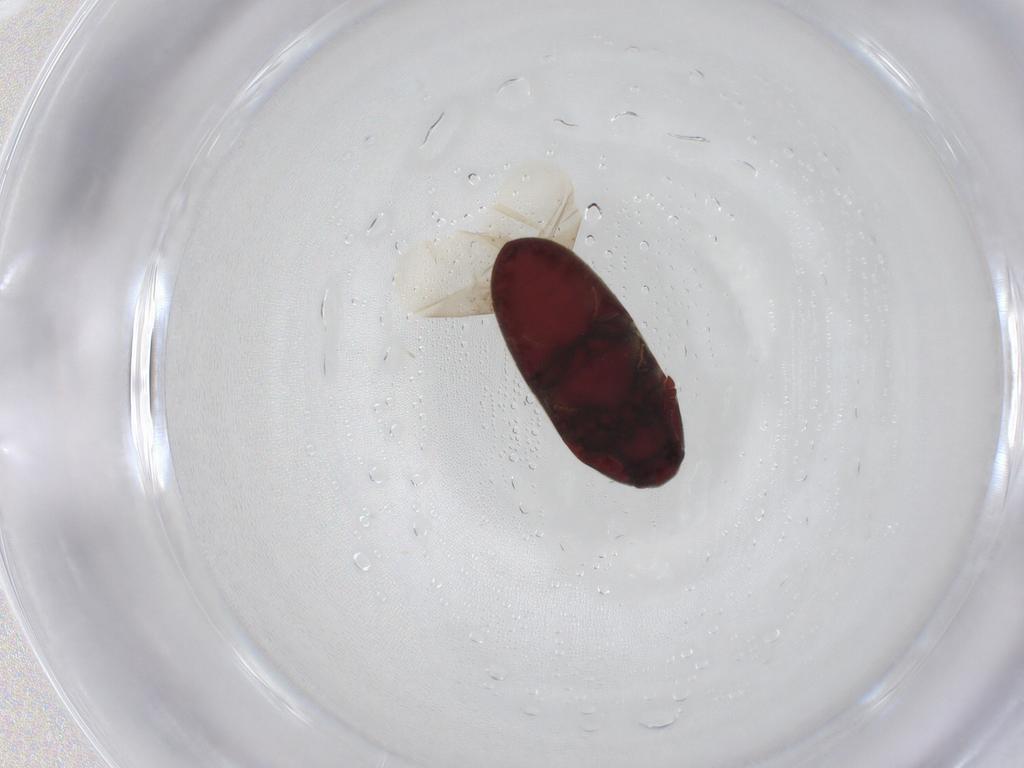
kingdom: Animalia
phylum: Arthropoda
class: Insecta
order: Coleoptera
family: Throscidae
